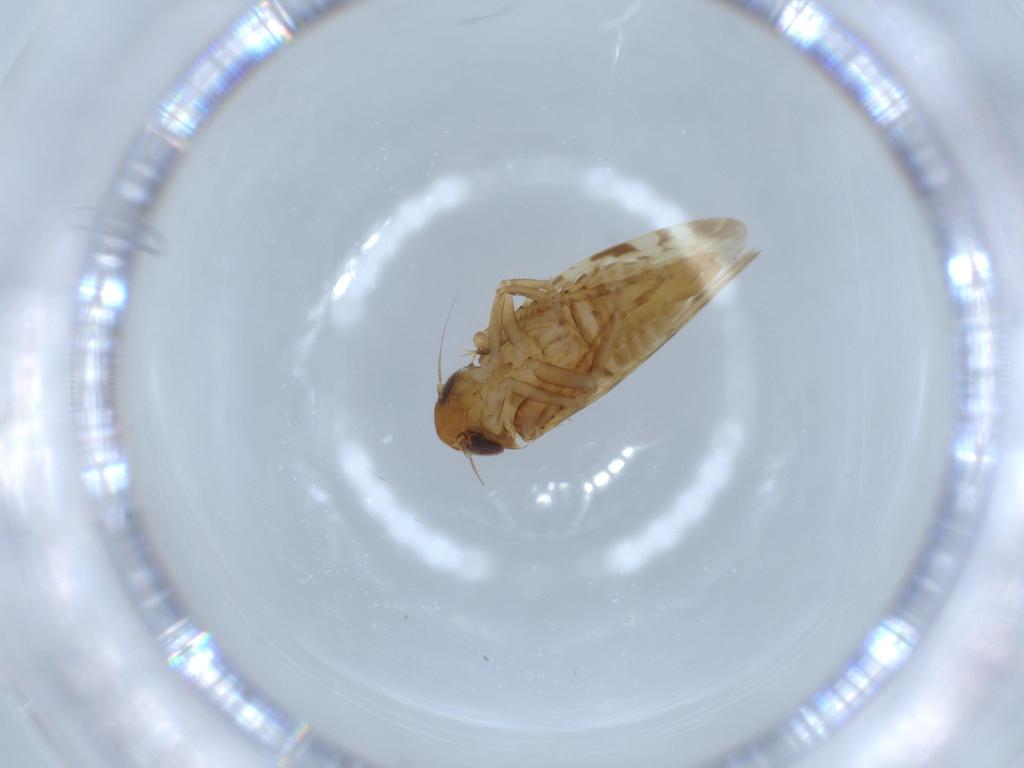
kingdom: Animalia
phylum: Arthropoda
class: Insecta
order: Hemiptera
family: Cicadellidae
